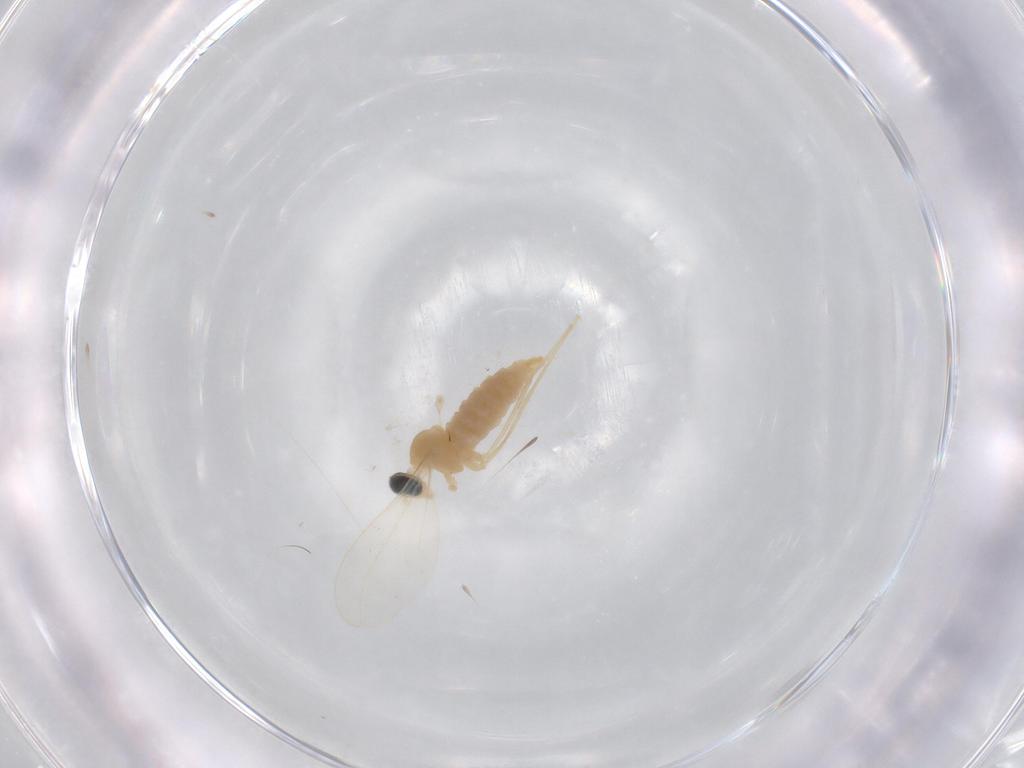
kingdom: Animalia
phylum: Arthropoda
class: Insecta
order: Diptera
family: Cecidomyiidae
